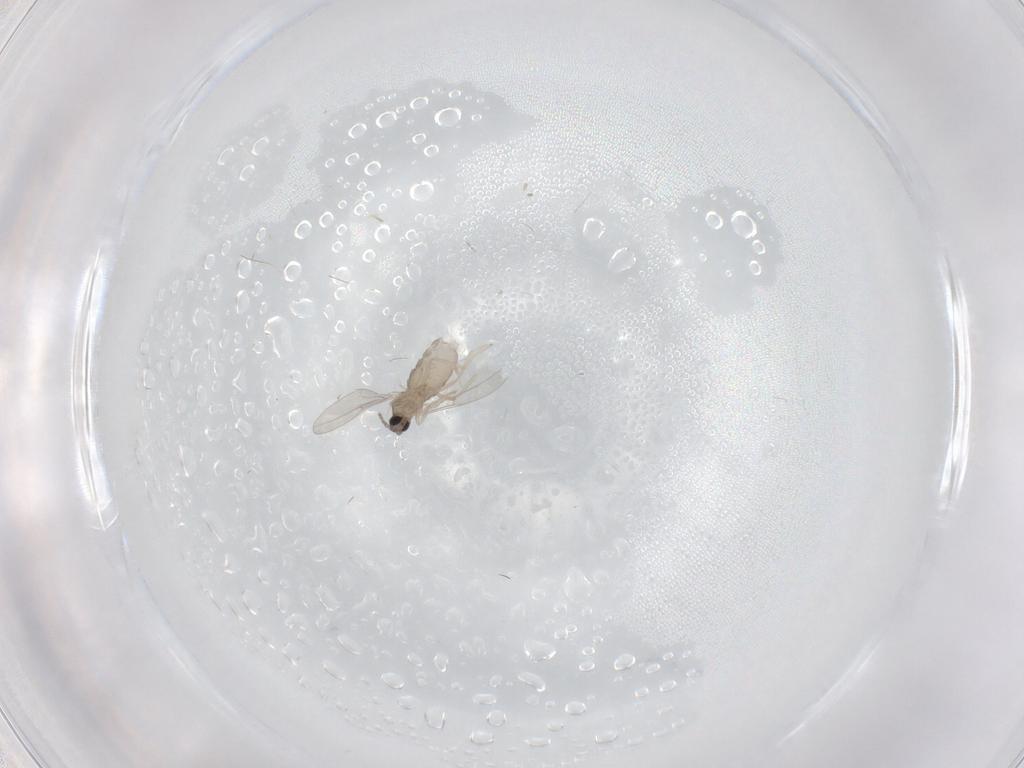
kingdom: Animalia
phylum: Arthropoda
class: Insecta
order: Diptera
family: Cecidomyiidae
